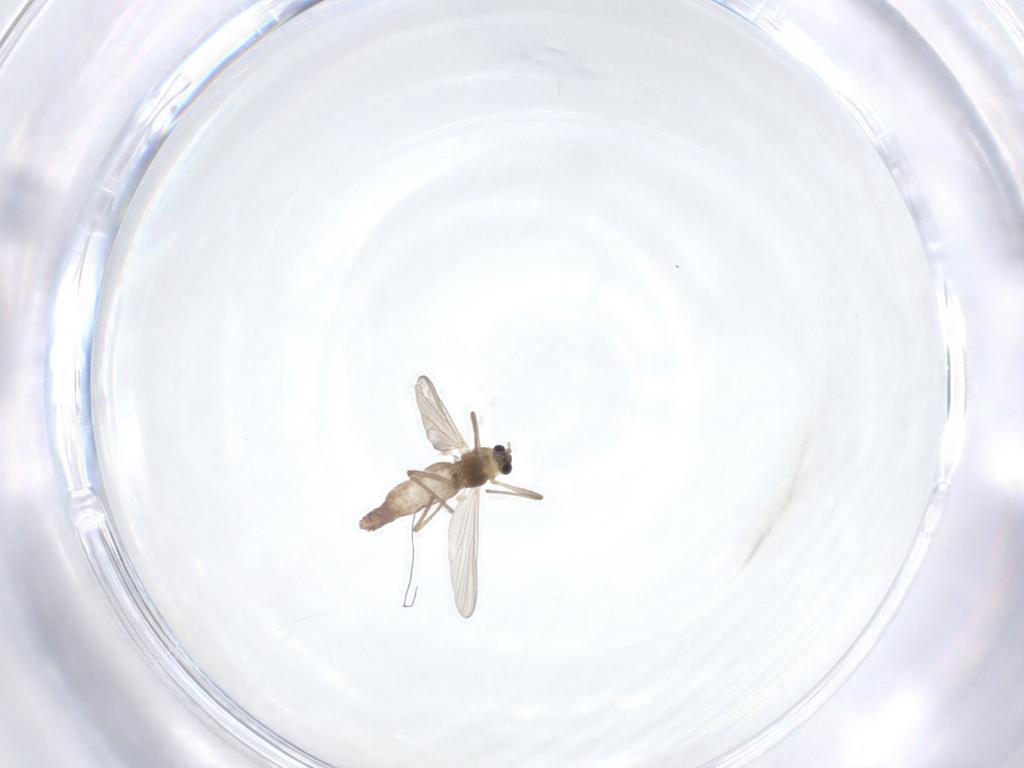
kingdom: Animalia
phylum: Arthropoda
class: Insecta
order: Diptera
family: Chironomidae
